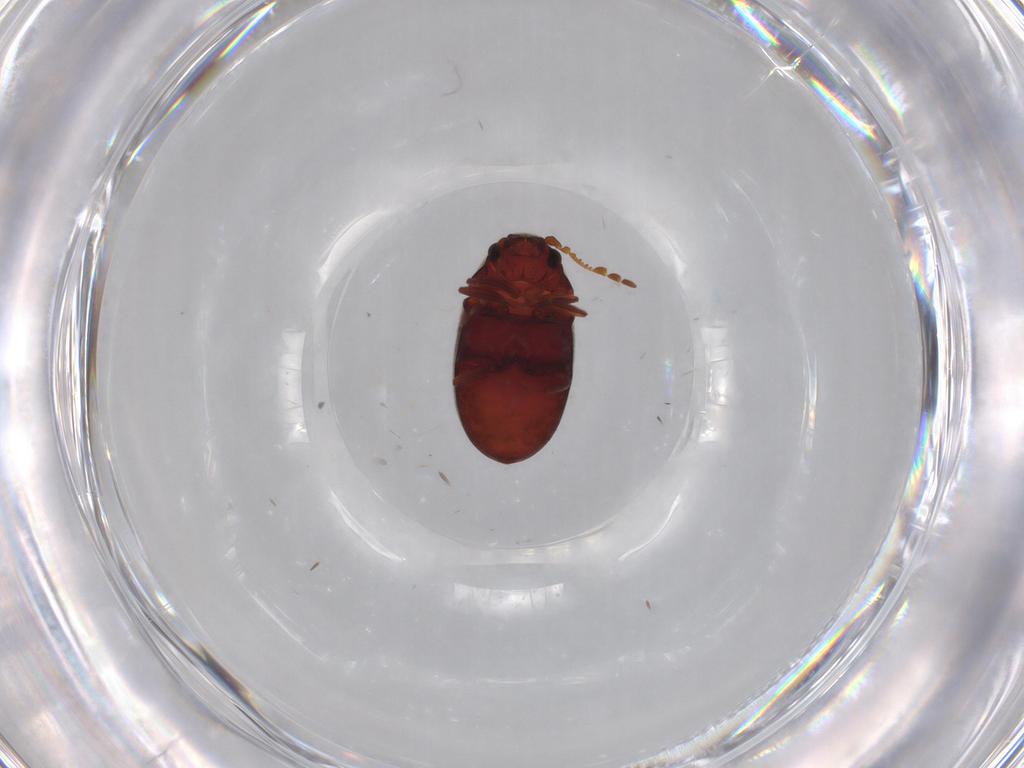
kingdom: Animalia
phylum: Arthropoda
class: Insecta
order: Coleoptera
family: Ptinidae
